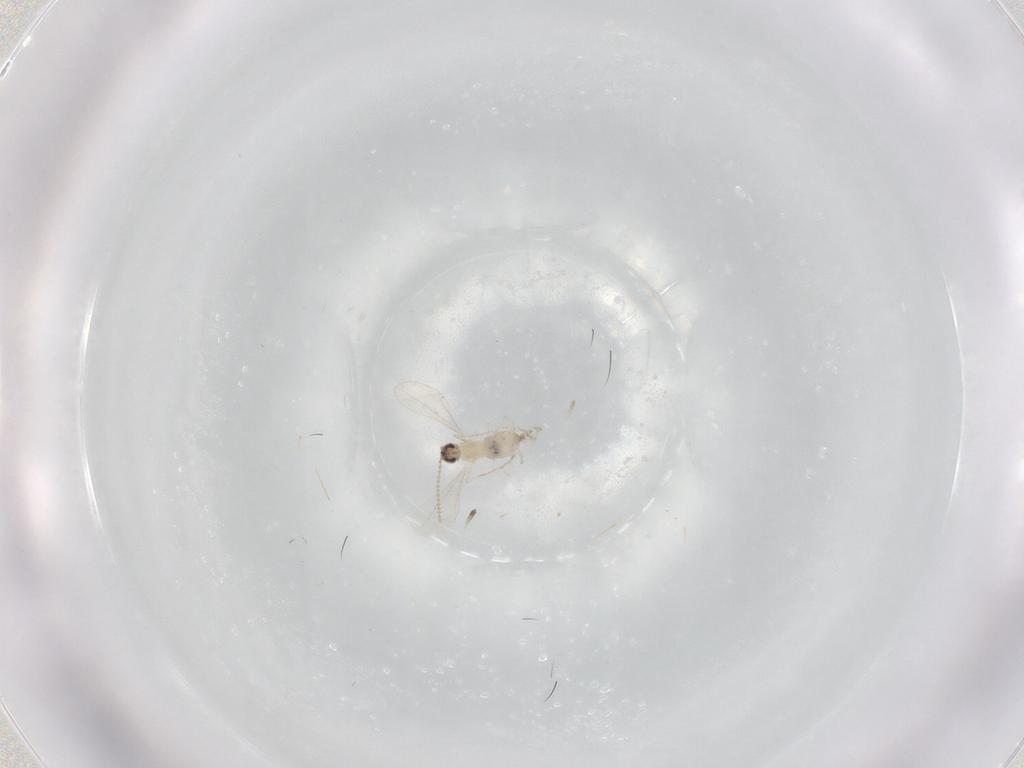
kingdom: Animalia
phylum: Arthropoda
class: Insecta
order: Diptera
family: Cecidomyiidae
